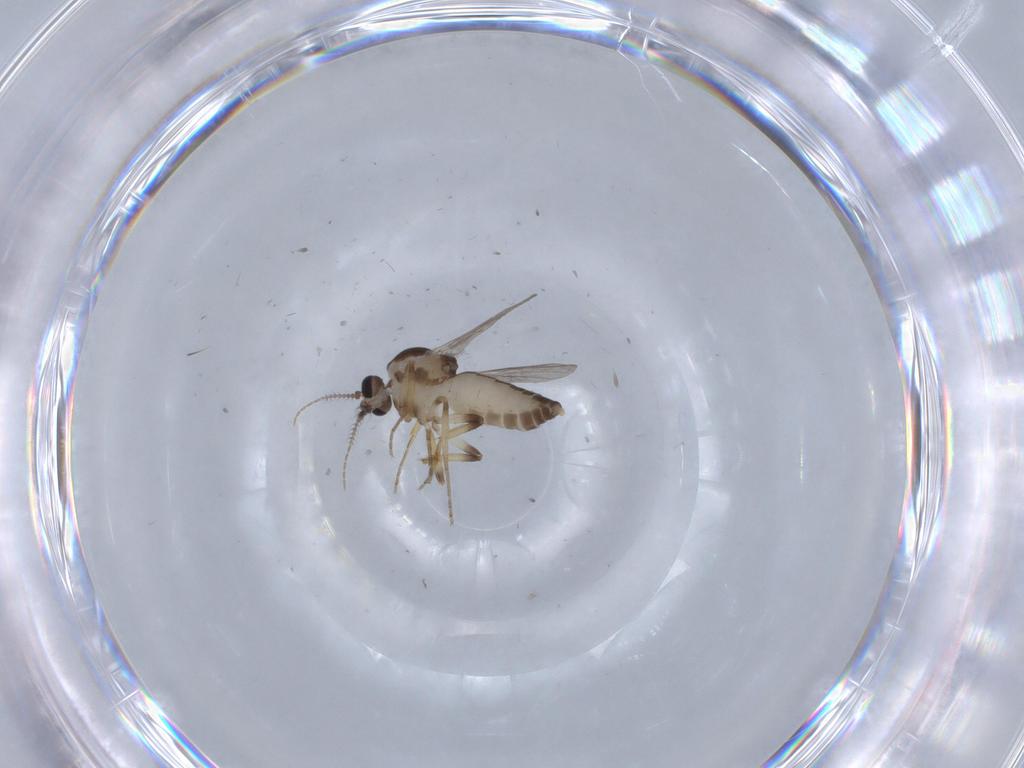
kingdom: Animalia
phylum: Arthropoda
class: Insecta
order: Diptera
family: Ceratopogonidae
